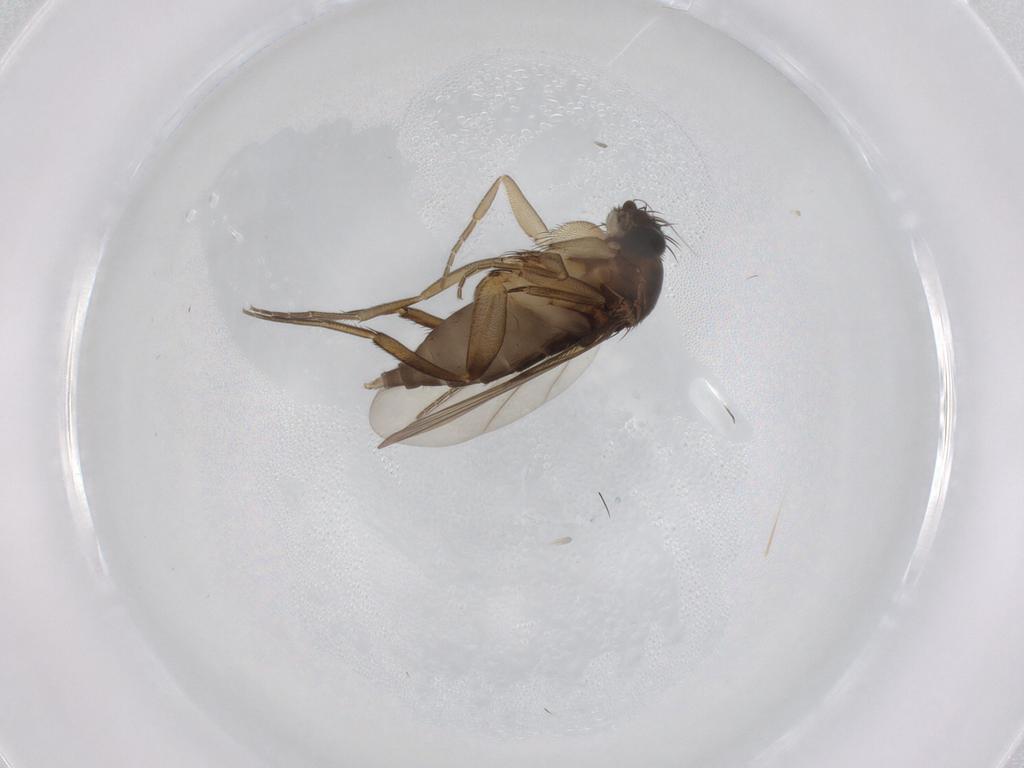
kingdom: Animalia
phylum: Arthropoda
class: Insecta
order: Diptera
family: Phoridae
